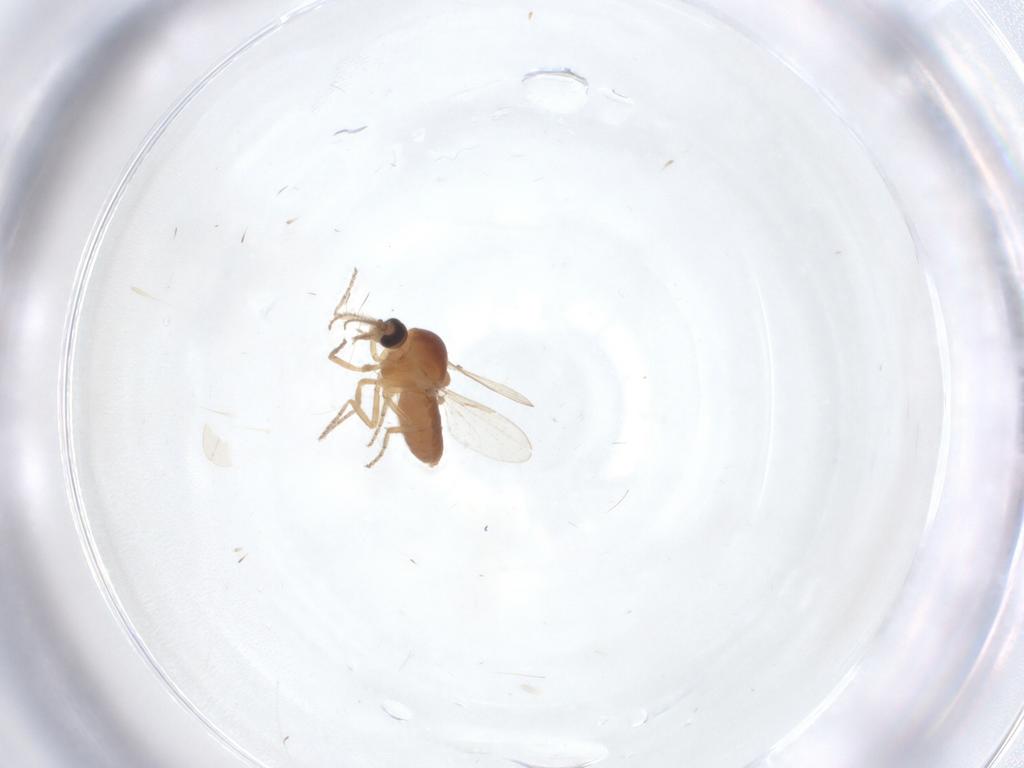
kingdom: Animalia
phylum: Arthropoda
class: Insecta
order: Diptera
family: Ceratopogonidae
